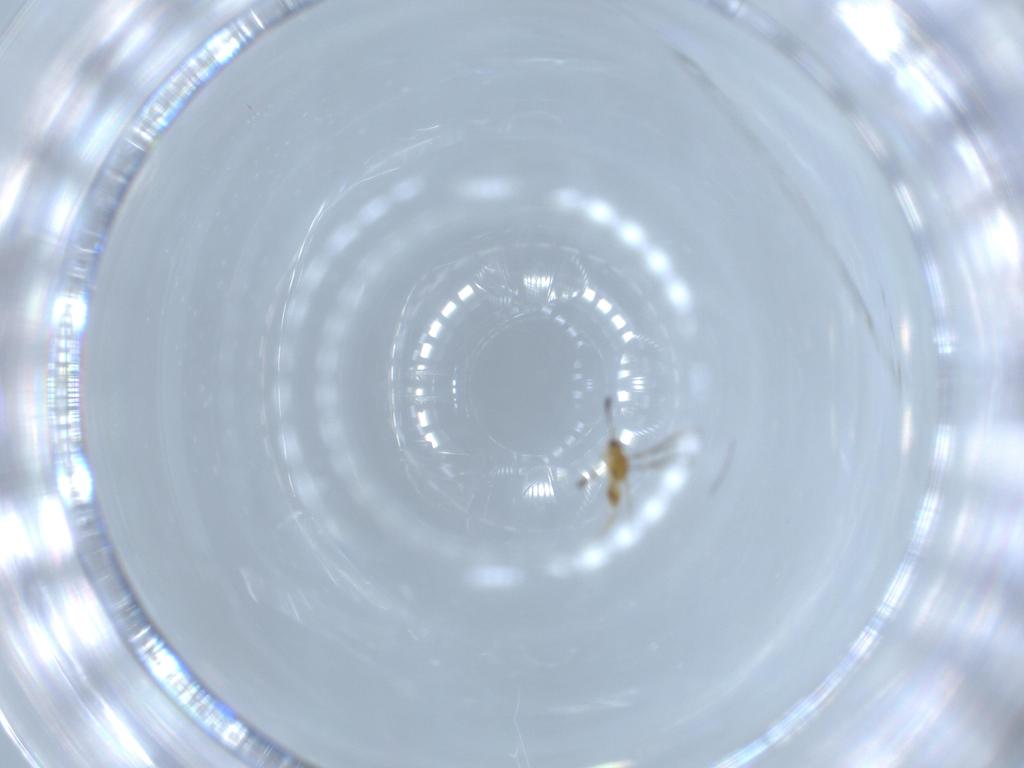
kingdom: Animalia
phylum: Arthropoda
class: Insecta
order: Hymenoptera
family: Mymaridae
